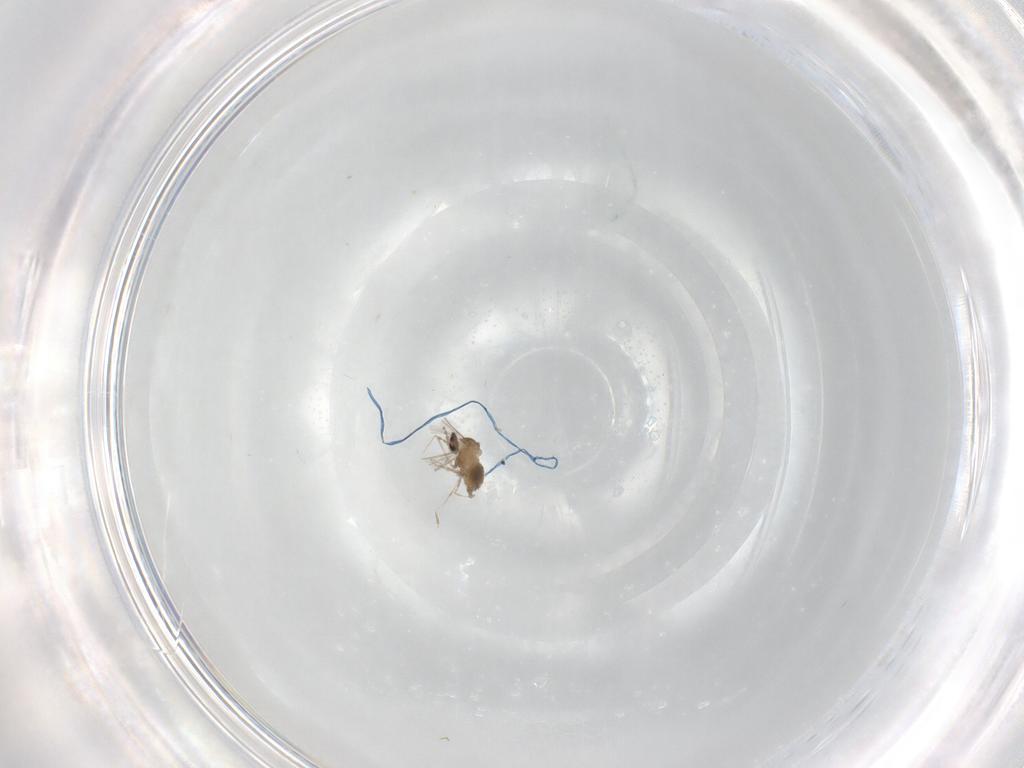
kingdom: Animalia
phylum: Arthropoda
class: Insecta
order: Diptera
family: Cecidomyiidae
